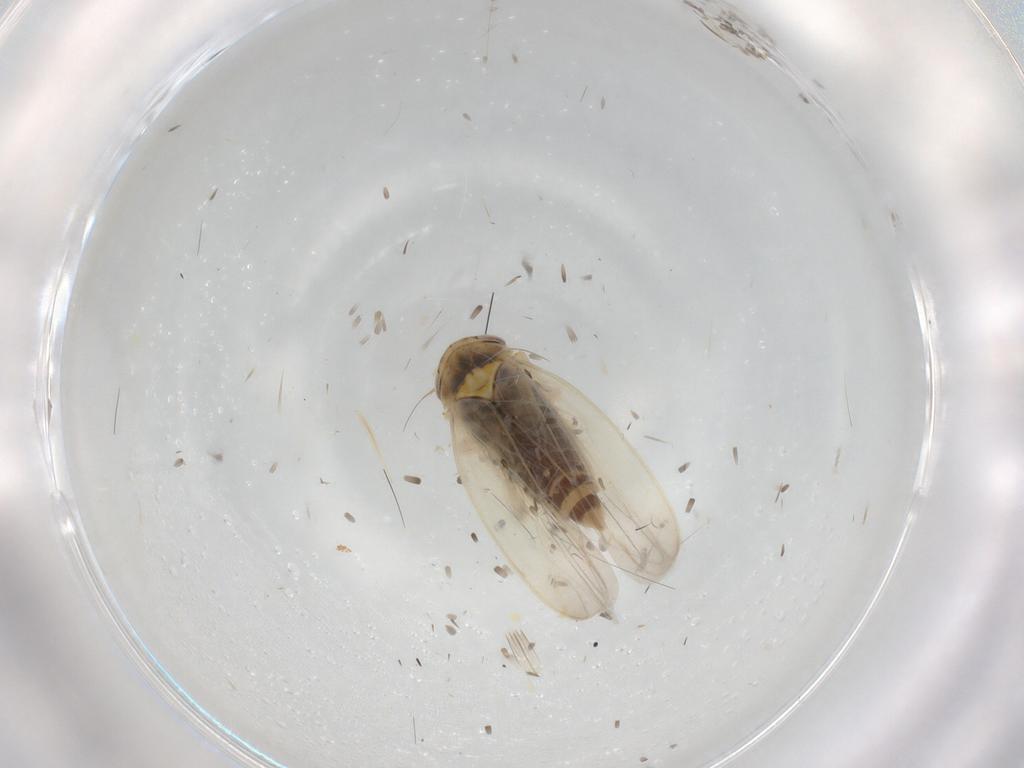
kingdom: Animalia
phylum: Arthropoda
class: Insecta
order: Hemiptera
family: Cicadellidae
